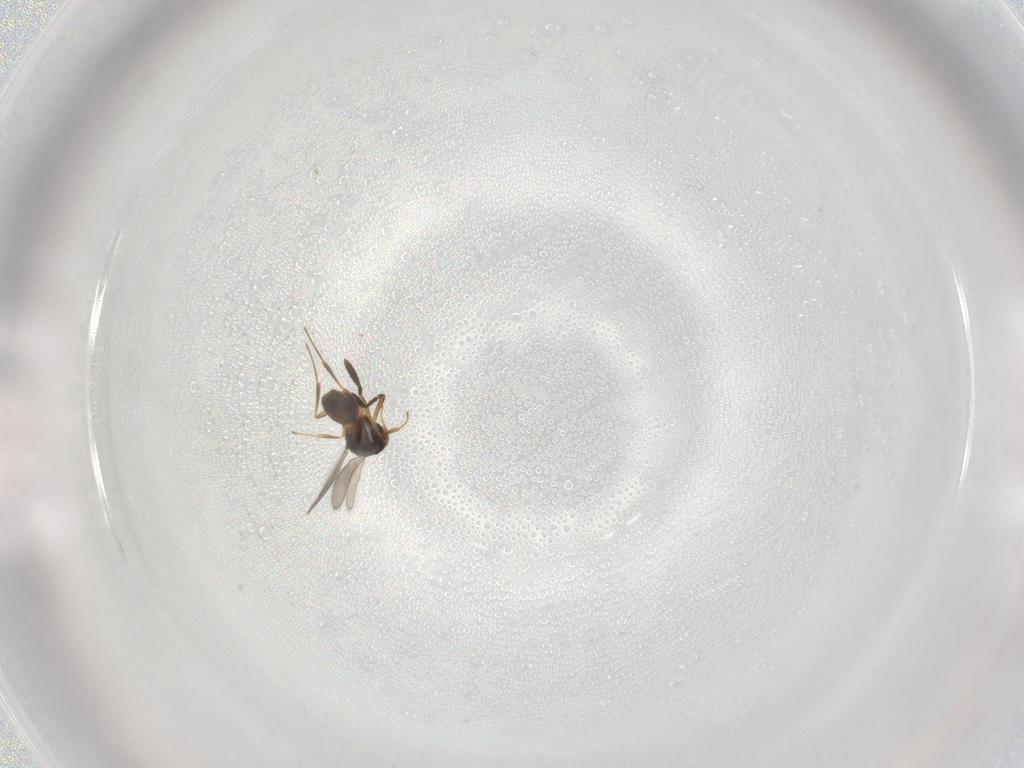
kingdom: Animalia
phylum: Arthropoda
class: Insecta
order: Hymenoptera
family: Scelionidae
